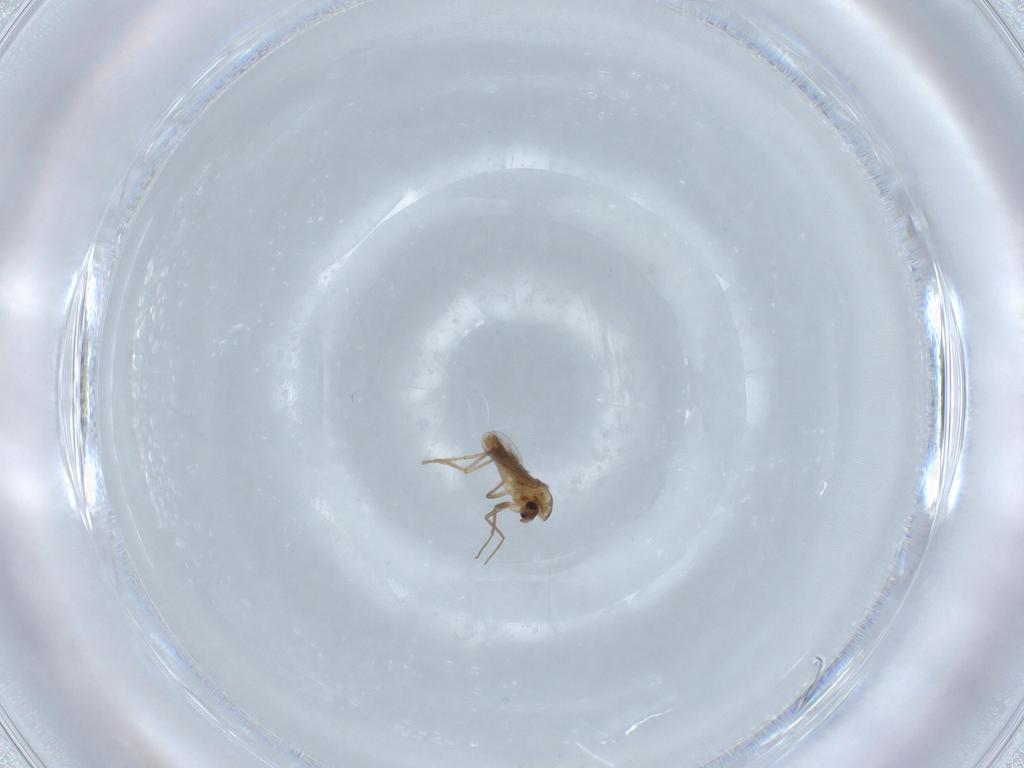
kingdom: Animalia
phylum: Arthropoda
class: Insecta
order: Diptera
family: Chironomidae
